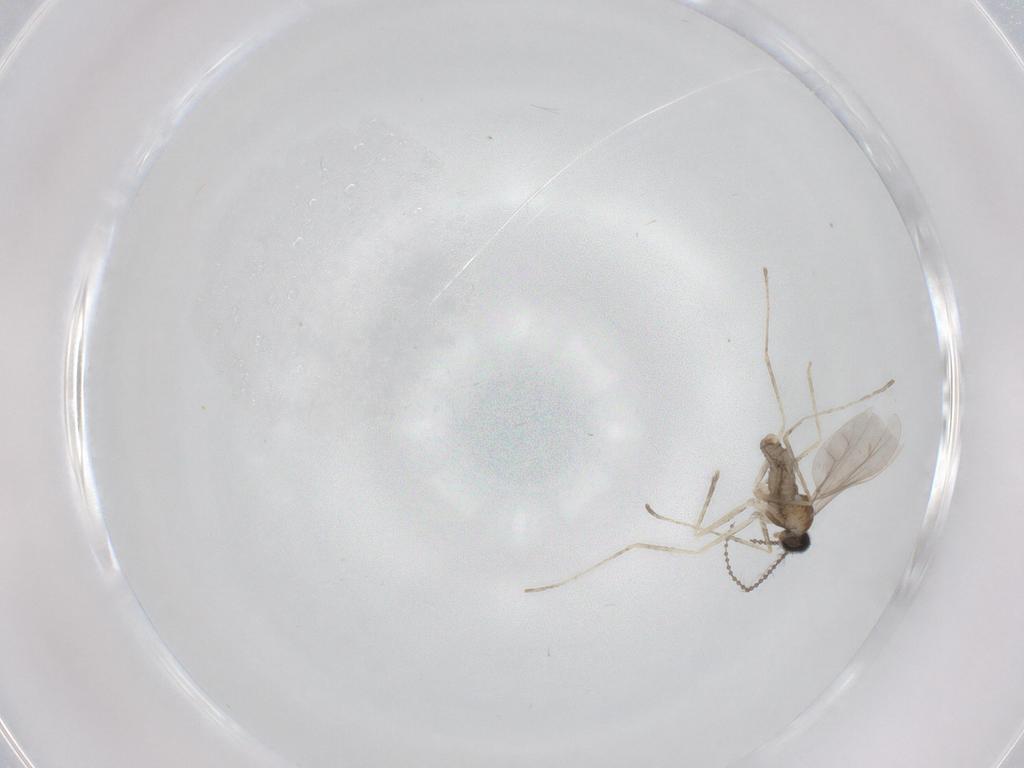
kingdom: Animalia
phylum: Arthropoda
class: Insecta
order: Diptera
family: Cecidomyiidae
